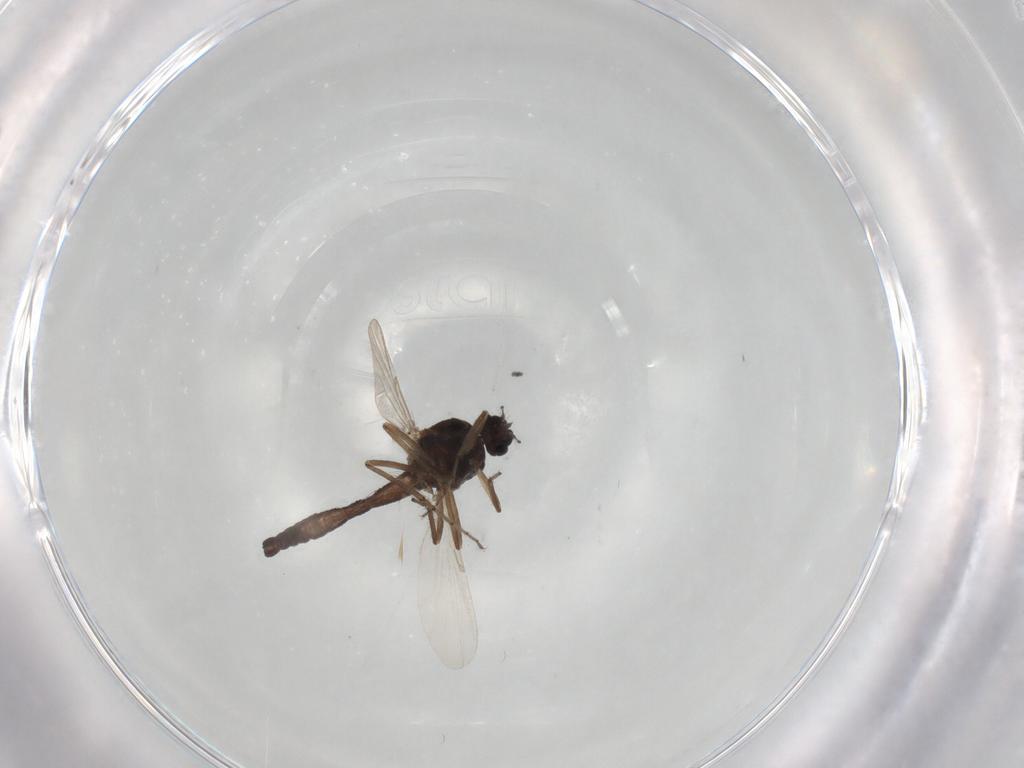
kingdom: Animalia
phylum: Arthropoda
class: Insecta
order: Diptera
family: Ceratopogonidae
